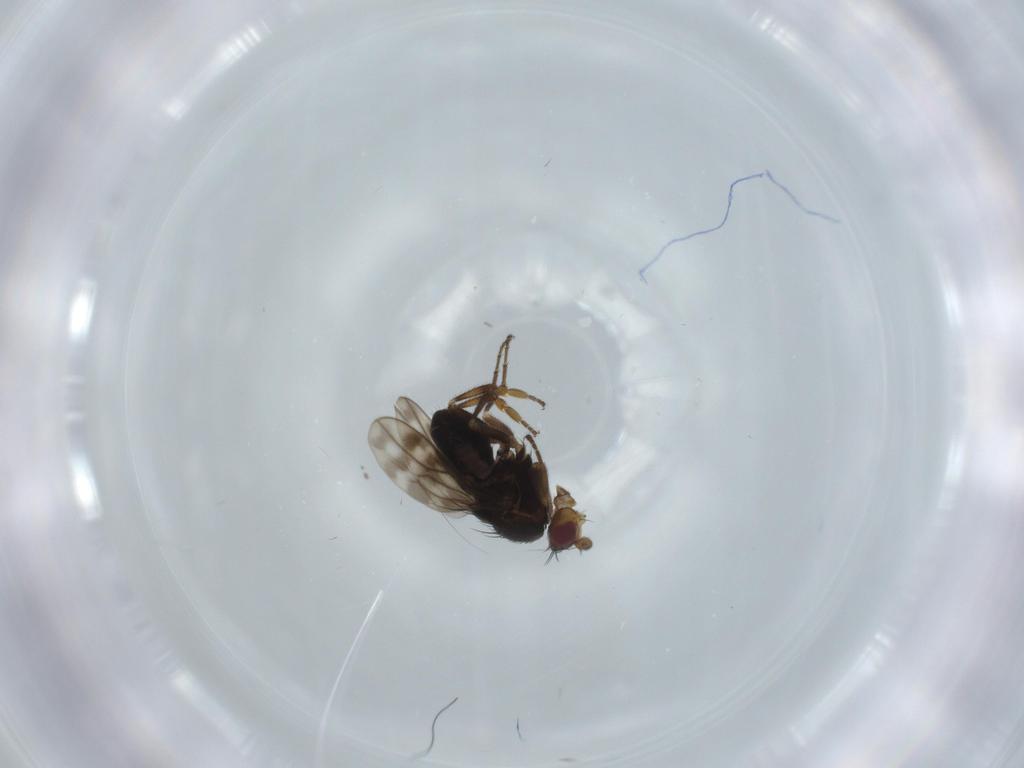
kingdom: Animalia
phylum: Arthropoda
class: Insecta
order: Diptera
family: Sphaeroceridae
